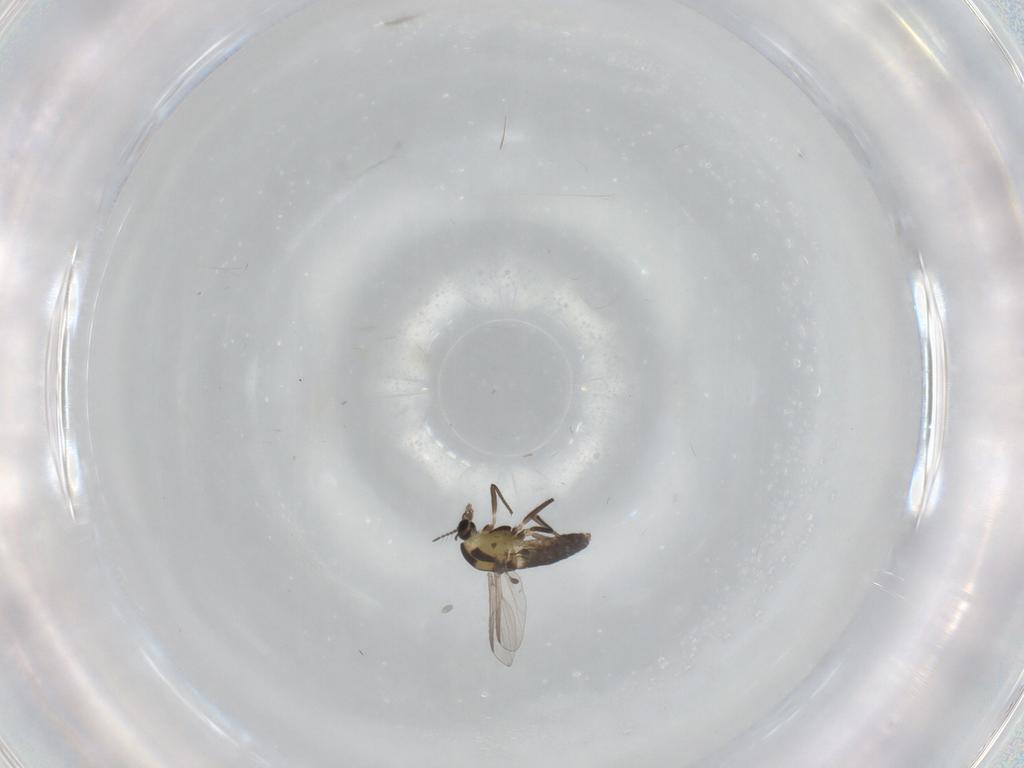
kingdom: Animalia
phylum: Arthropoda
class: Insecta
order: Diptera
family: Chironomidae
